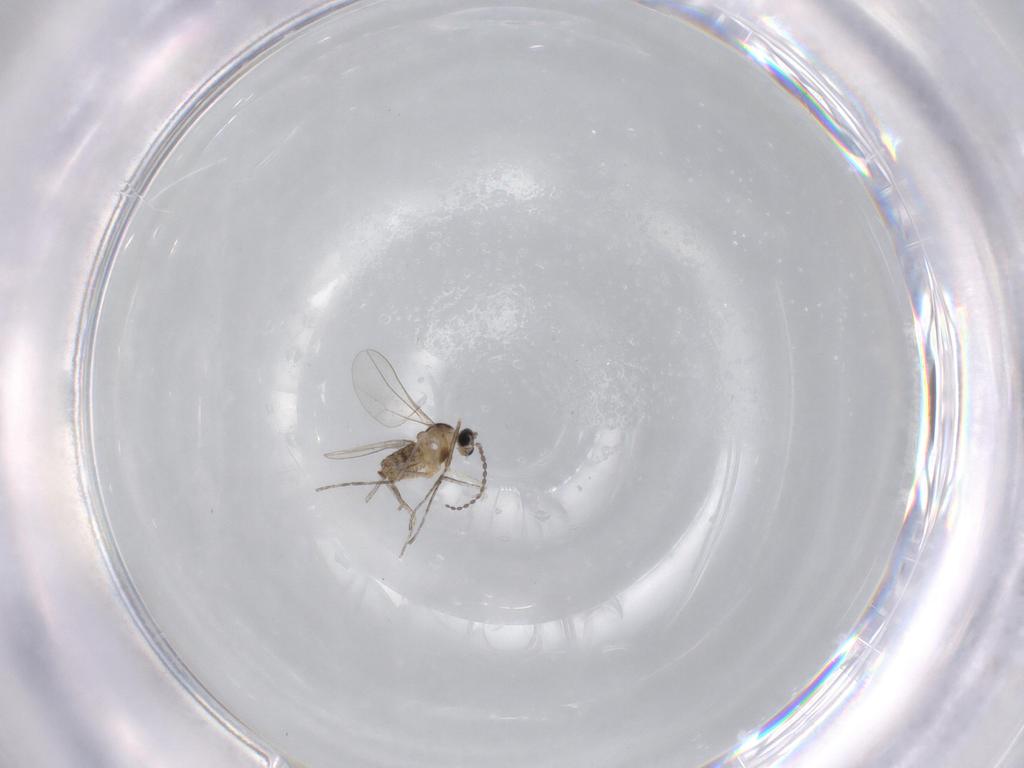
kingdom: Animalia
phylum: Arthropoda
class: Insecta
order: Diptera
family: Cecidomyiidae
